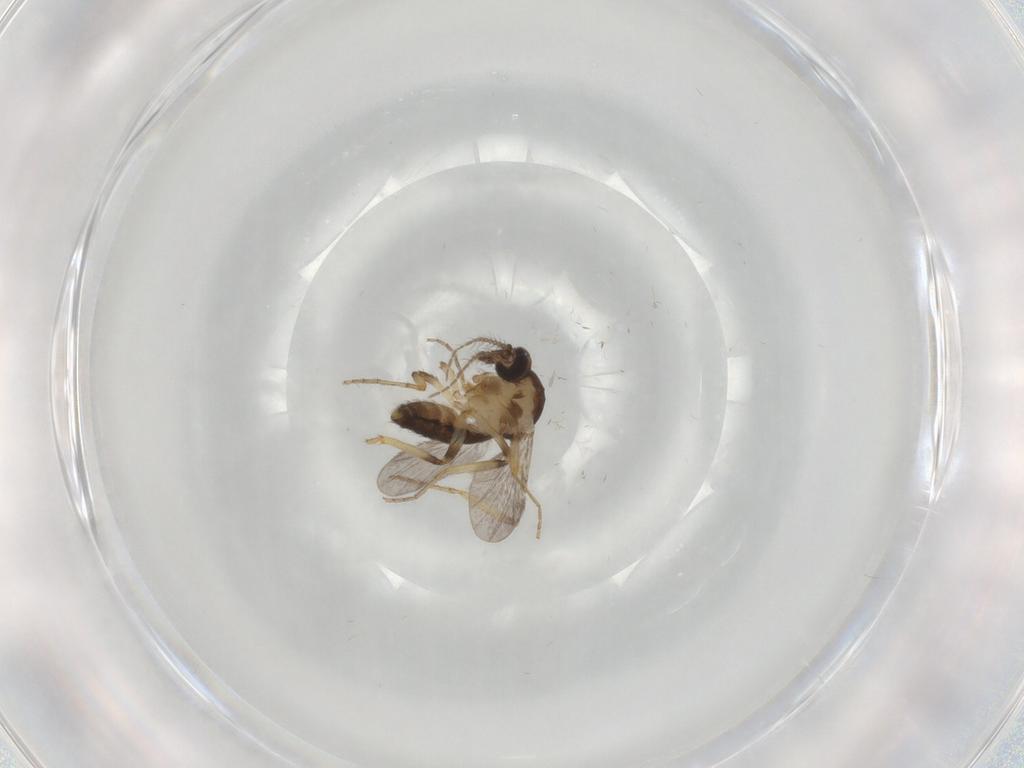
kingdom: Animalia
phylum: Arthropoda
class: Insecta
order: Diptera
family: Ceratopogonidae
